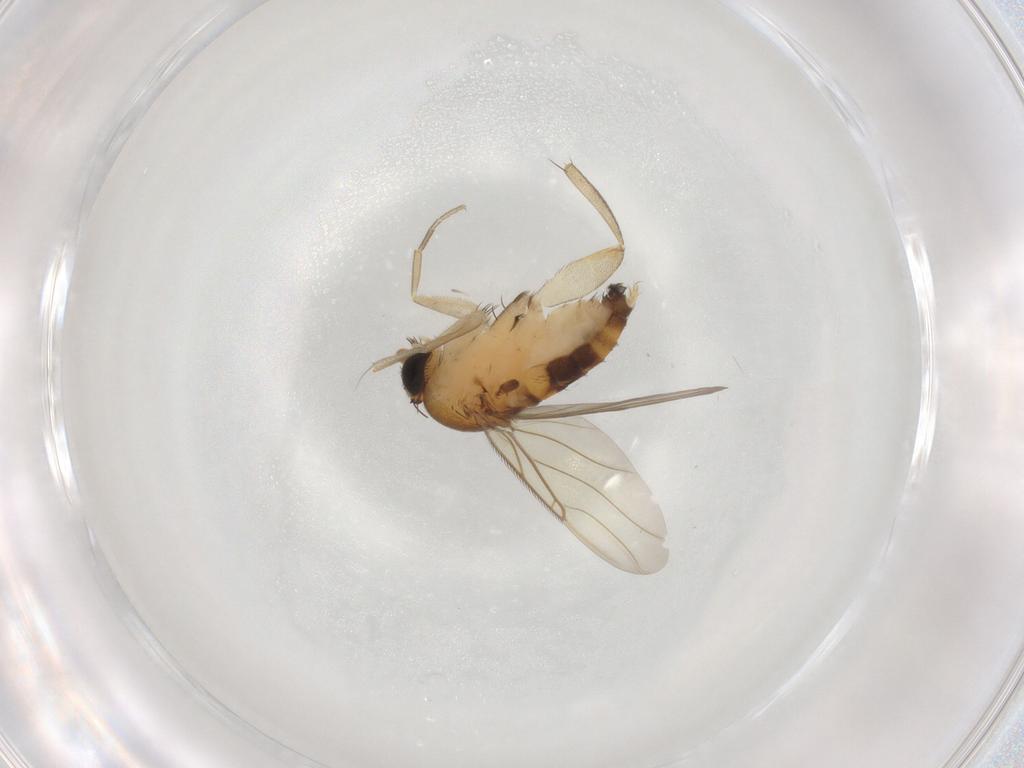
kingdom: Animalia
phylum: Arthropoda
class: Insecta
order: Diptera
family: Phoridae
